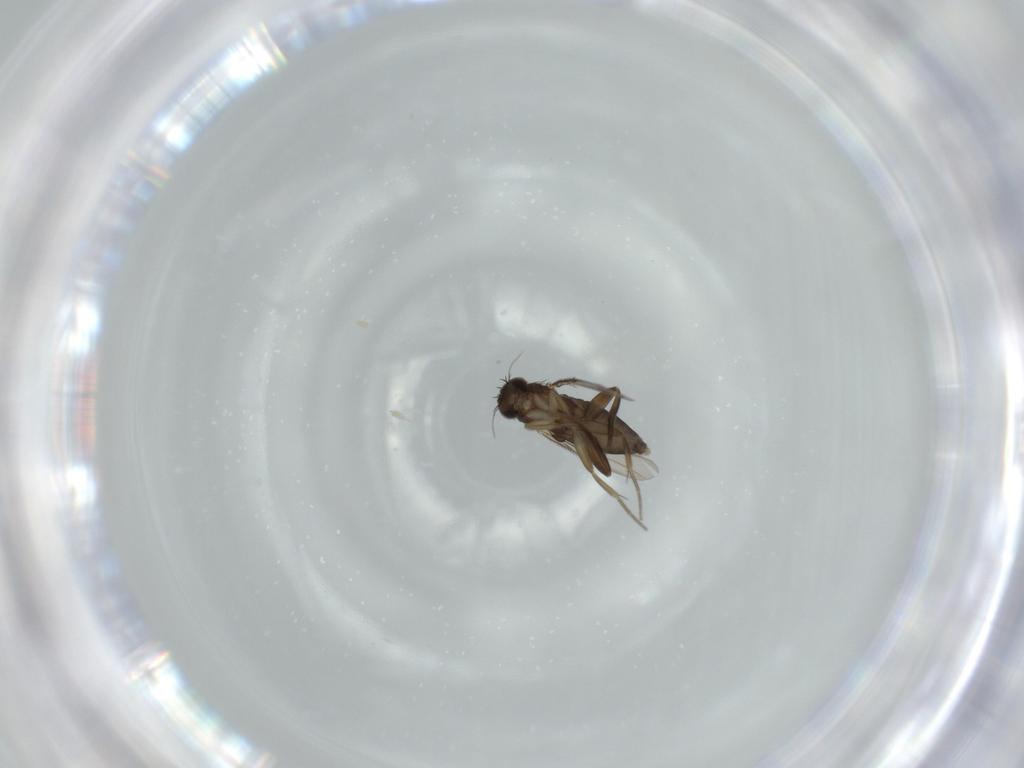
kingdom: Animalia
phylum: Arthropoda
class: Insecta
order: Diptera
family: Phoridae
